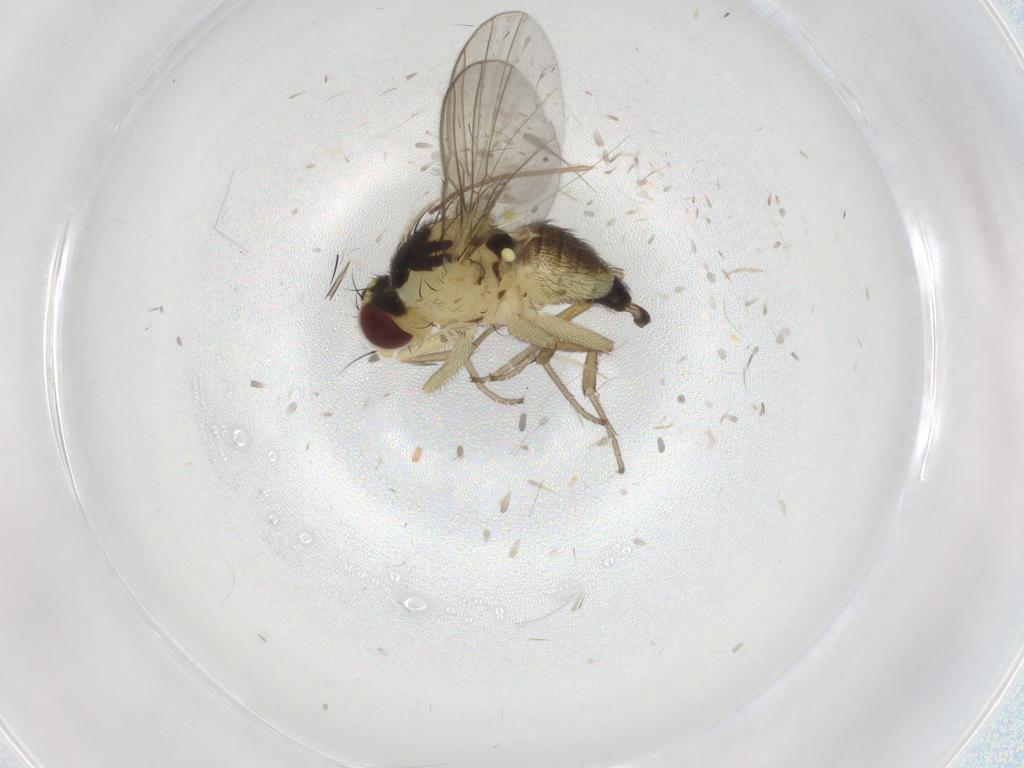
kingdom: Animalia
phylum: Arthropoda
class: Insecta
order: Diptera
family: Agromyzidae
